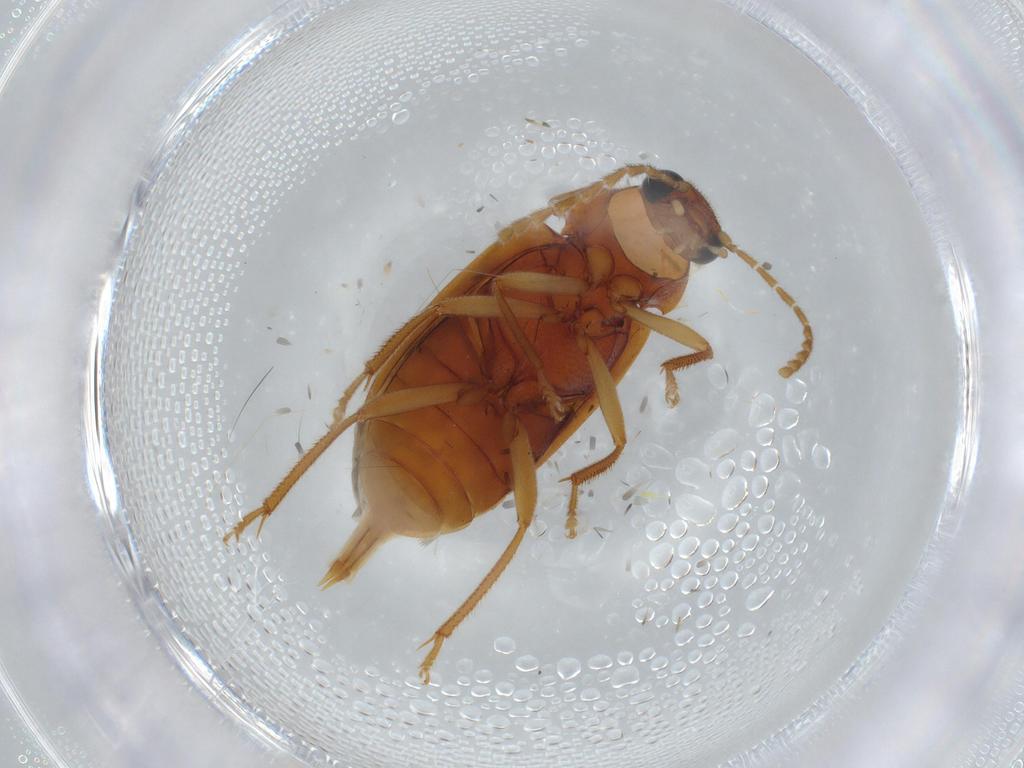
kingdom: Animalia
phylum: Arthropoda
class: Insecta
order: Coleoptera
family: Ptilodactylidae
